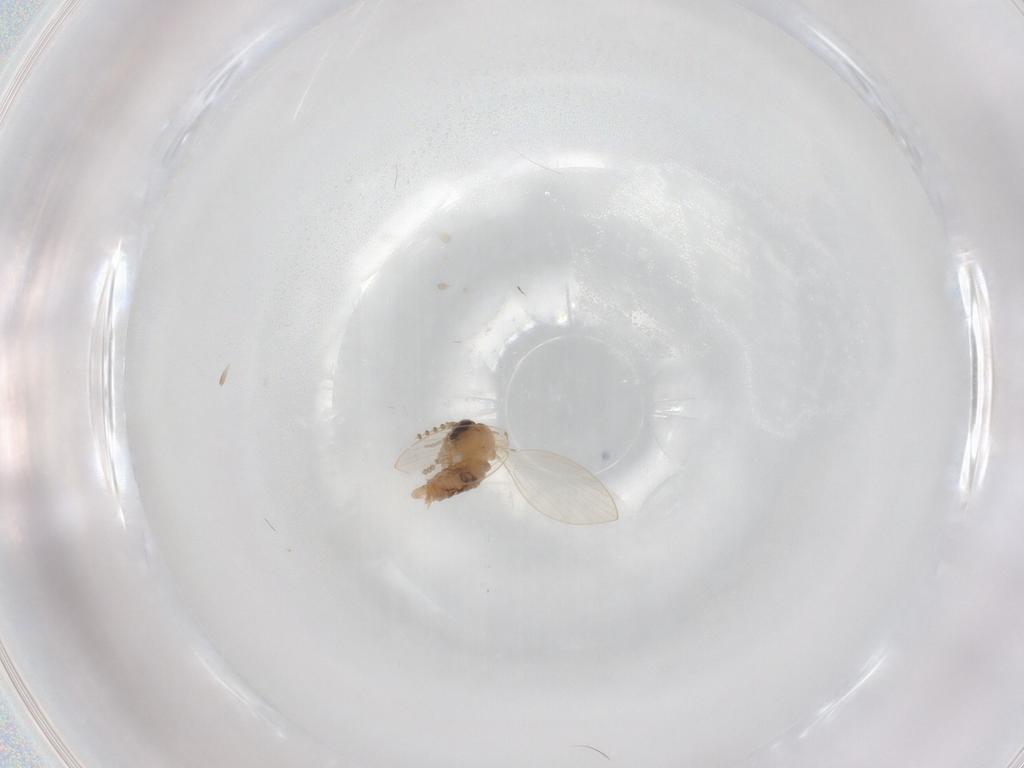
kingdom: Animalia
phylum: Arthropoda
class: Insecta
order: Diptera
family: Psychodidae
